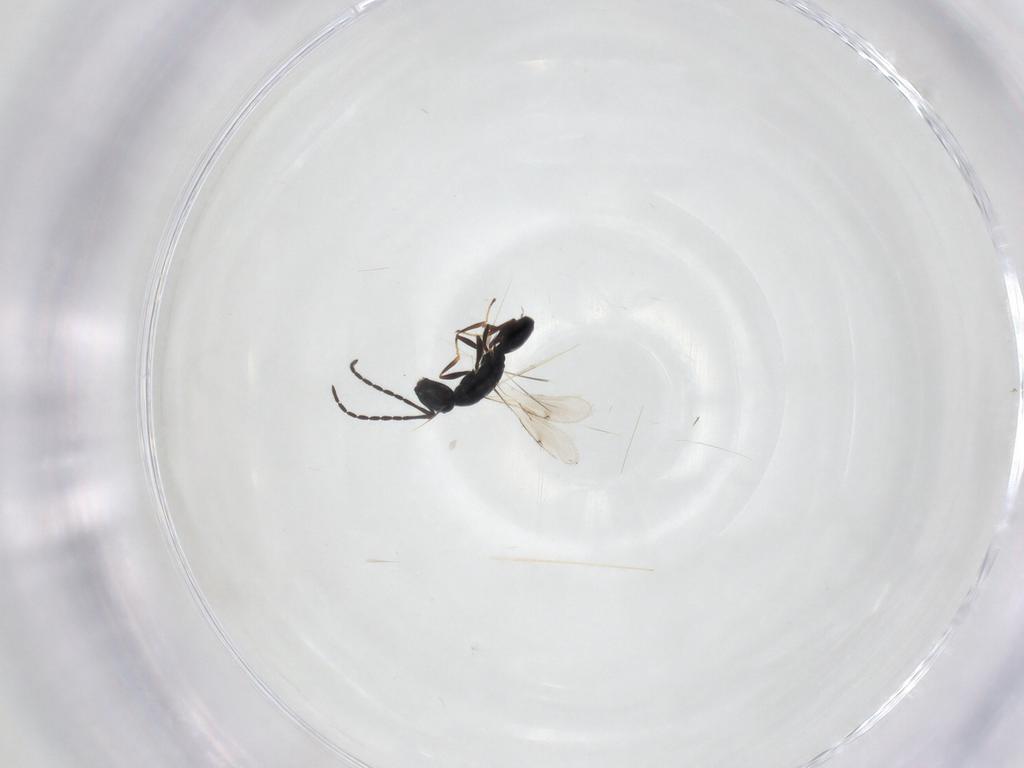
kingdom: Animalia
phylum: Arthropoda
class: Insecta
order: Hymenoptera
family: Spalangiidae
